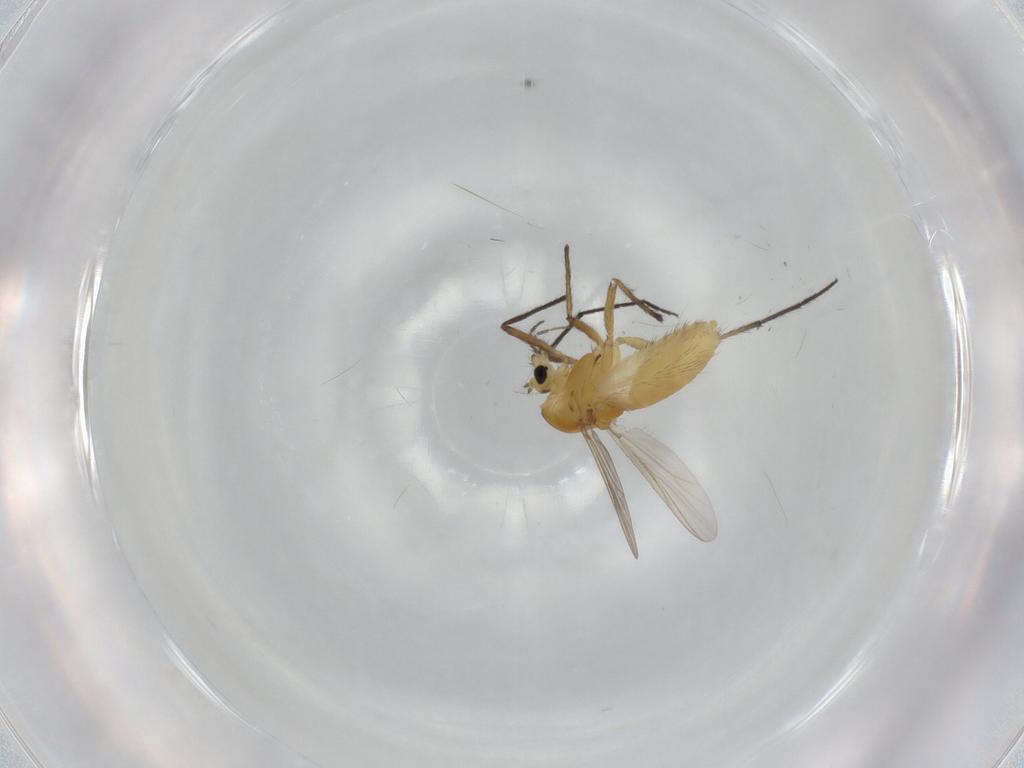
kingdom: Animalia
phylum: Arthropoda
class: Insecta
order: Diptera
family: Chironomidae
